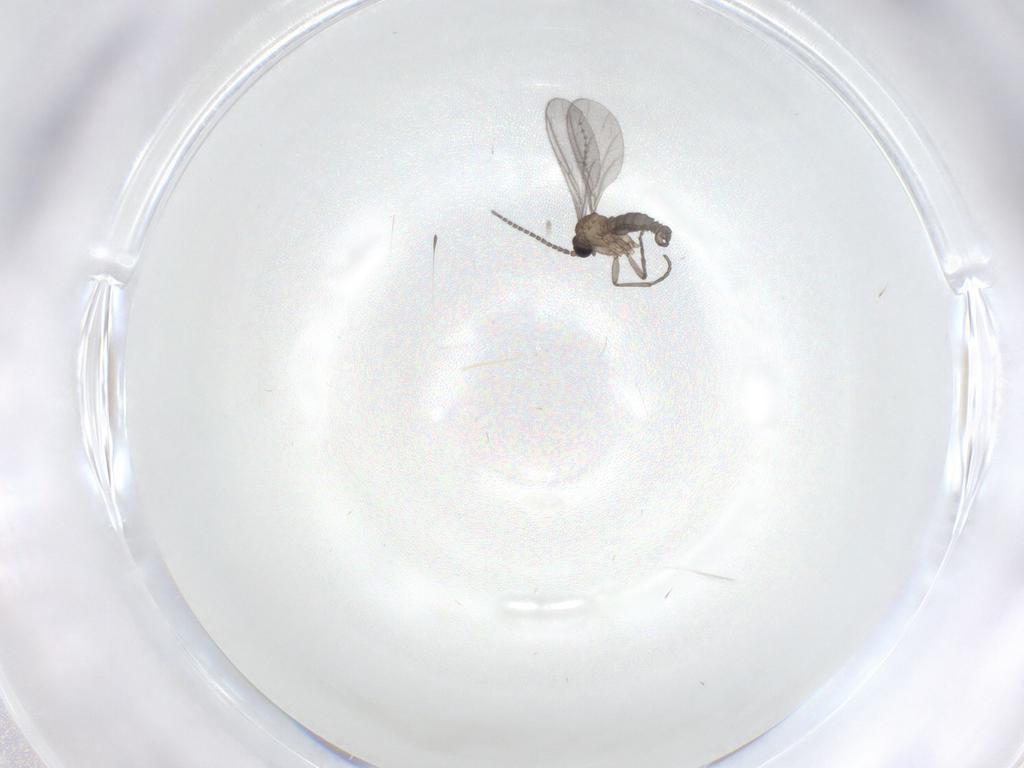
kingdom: Animalia
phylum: Arthropoda
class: Insecta
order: Diptera
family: Sciaridae
